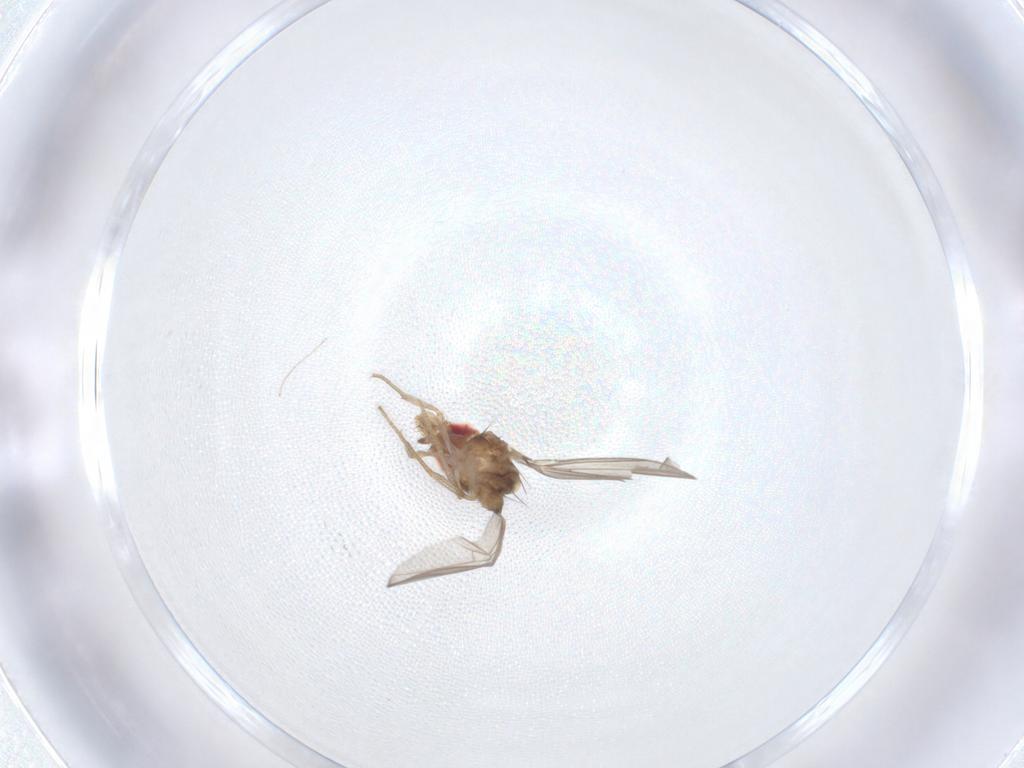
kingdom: Animalia
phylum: Arthropoda
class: Insecta
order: Diptera
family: Drosophilidae
